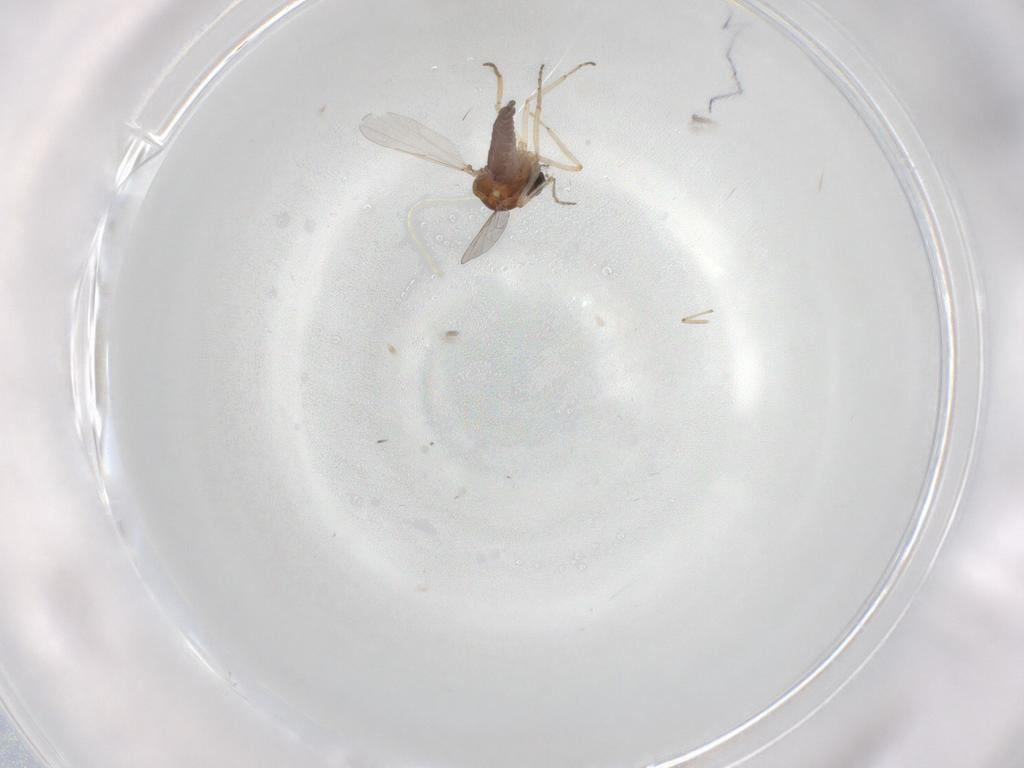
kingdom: Animalia
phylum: Arthropoda
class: Insecta
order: Diptera
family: Ceratopogonidae
